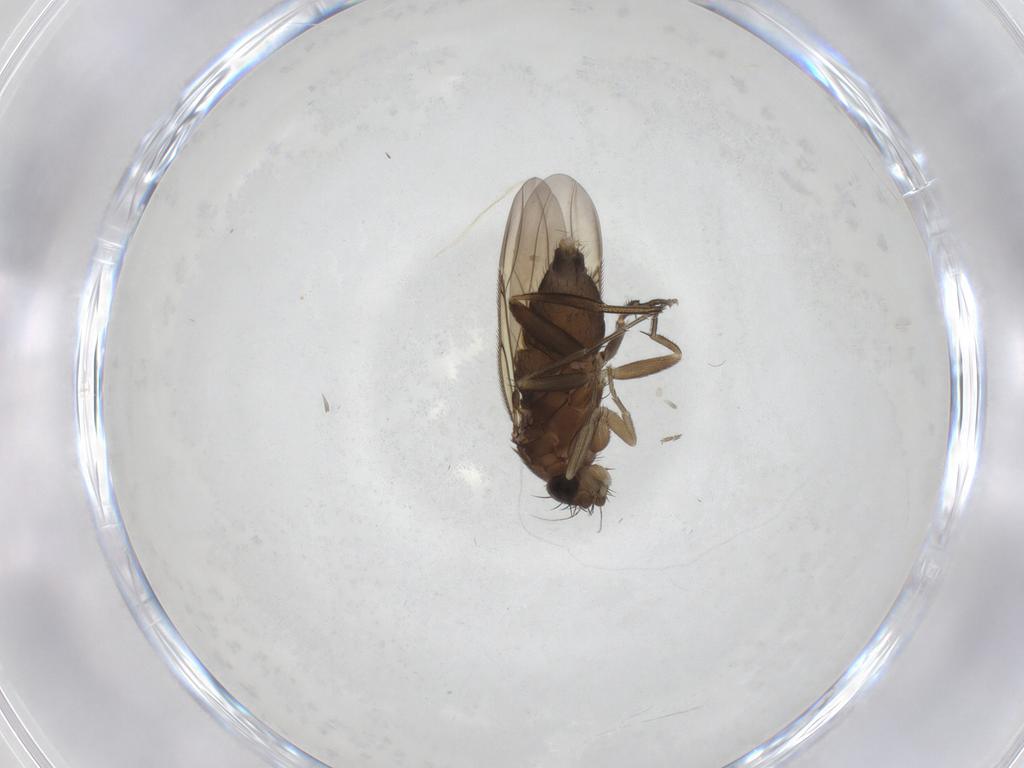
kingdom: Animalia
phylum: Arthropoda
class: Insecta
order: Diptera
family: Phoridae
